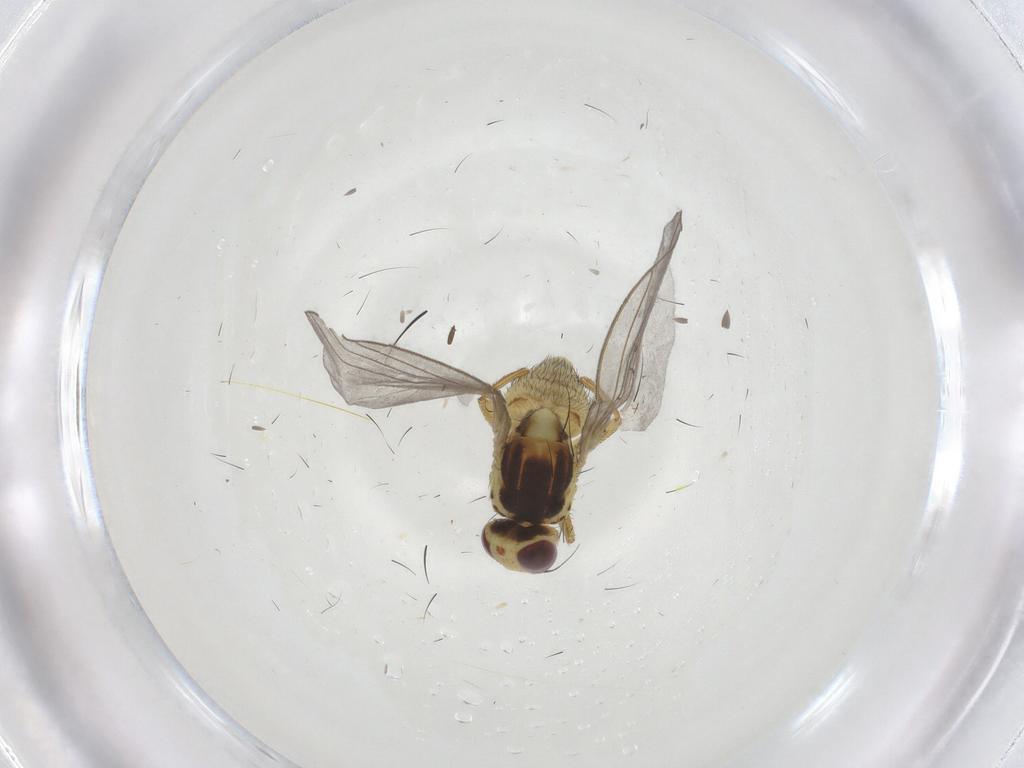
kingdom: Animalia
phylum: Arthropoda
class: Insecta
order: Diptera
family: Muscidae
